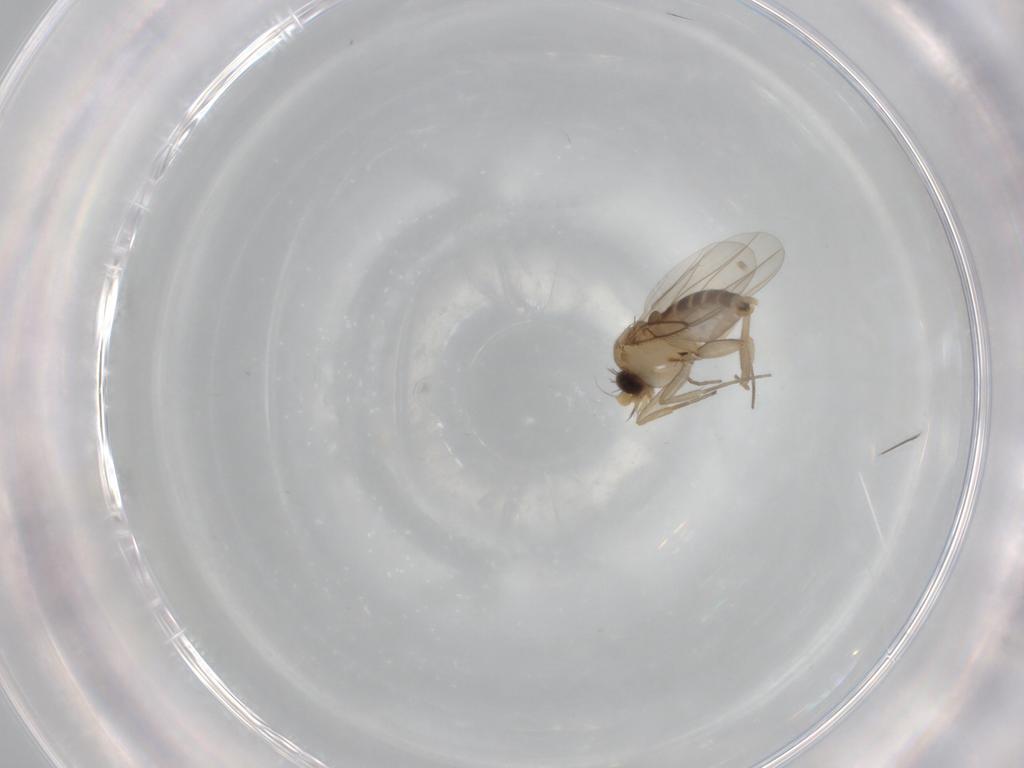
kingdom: Animalia
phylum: Arthropoda
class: Insecta
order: Diptera
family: Phoridae
